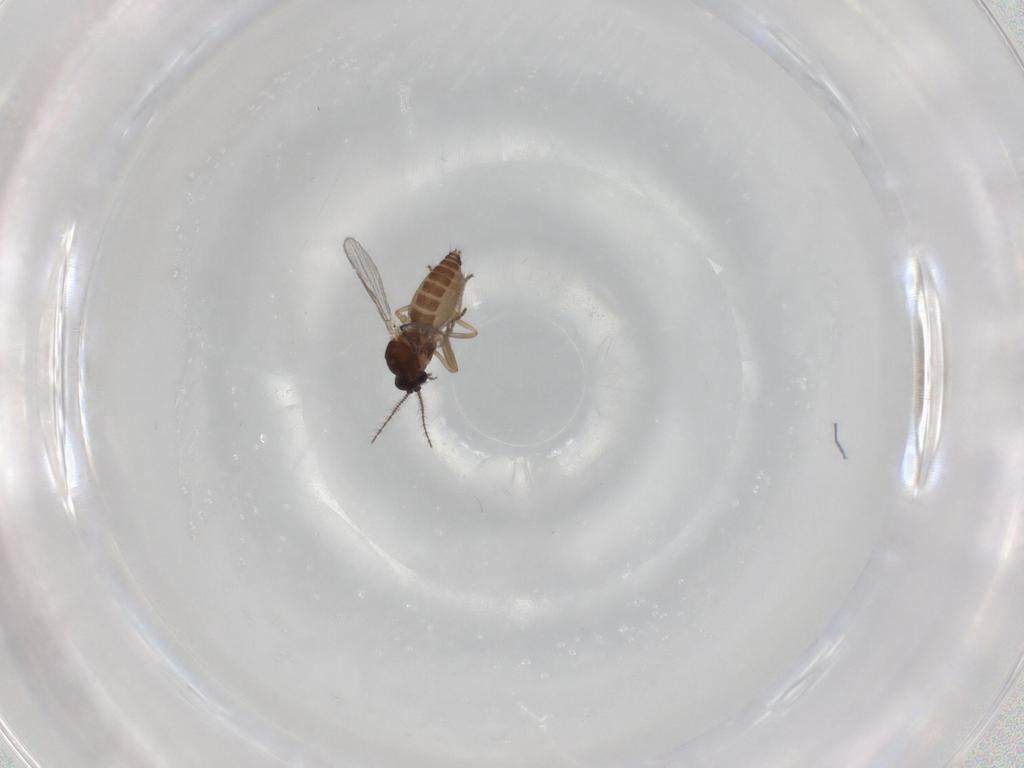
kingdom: Animalia
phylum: Arthropoda
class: Insecta
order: Diptera
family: Ceratopogonidae
